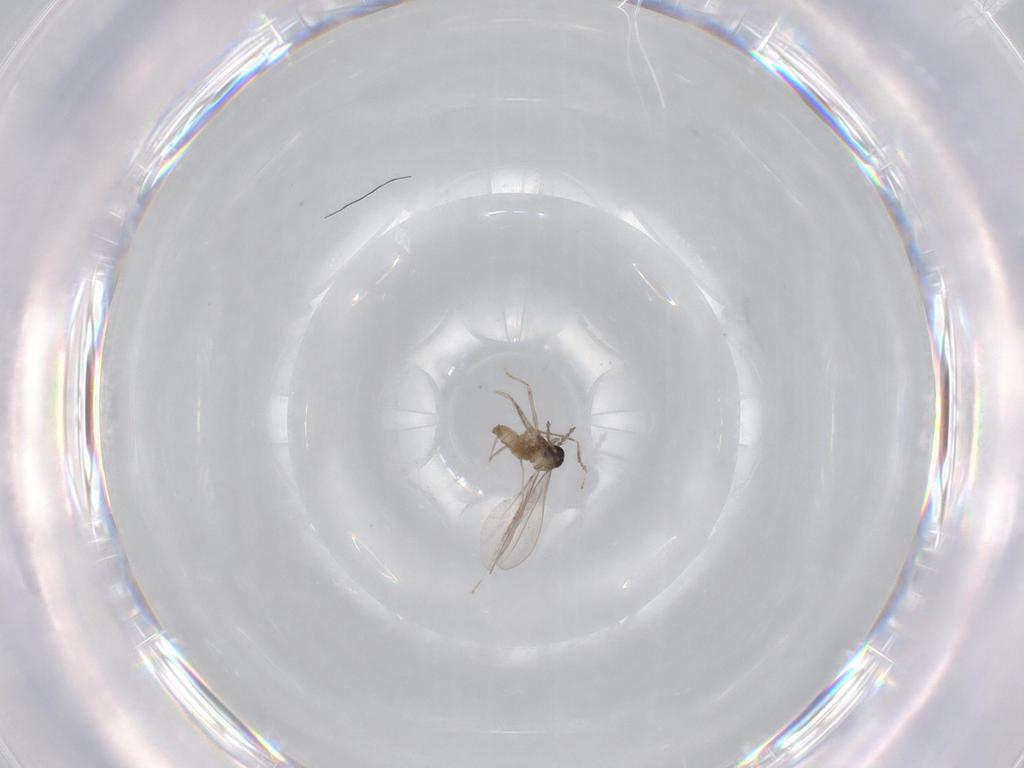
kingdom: Animalia
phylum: Arthropoda
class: Insecta
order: Diptera
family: Cecidomyiidae
